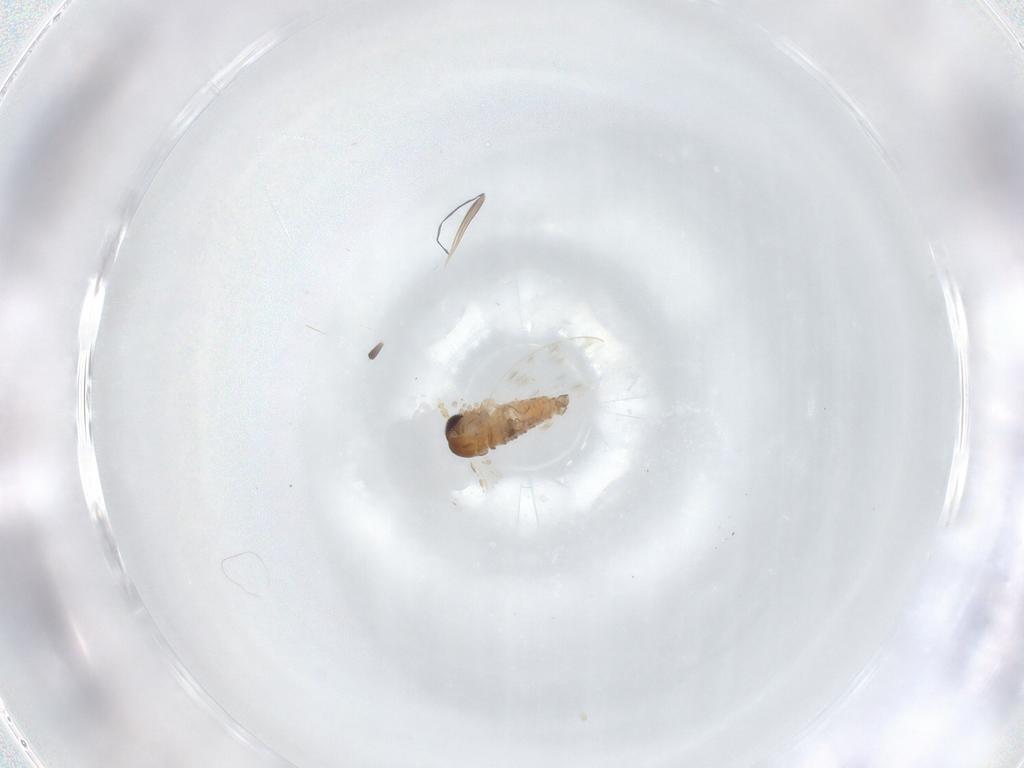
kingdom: Animalia
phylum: Arthropoda
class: Insecta
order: Diptera
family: Psychodidae
